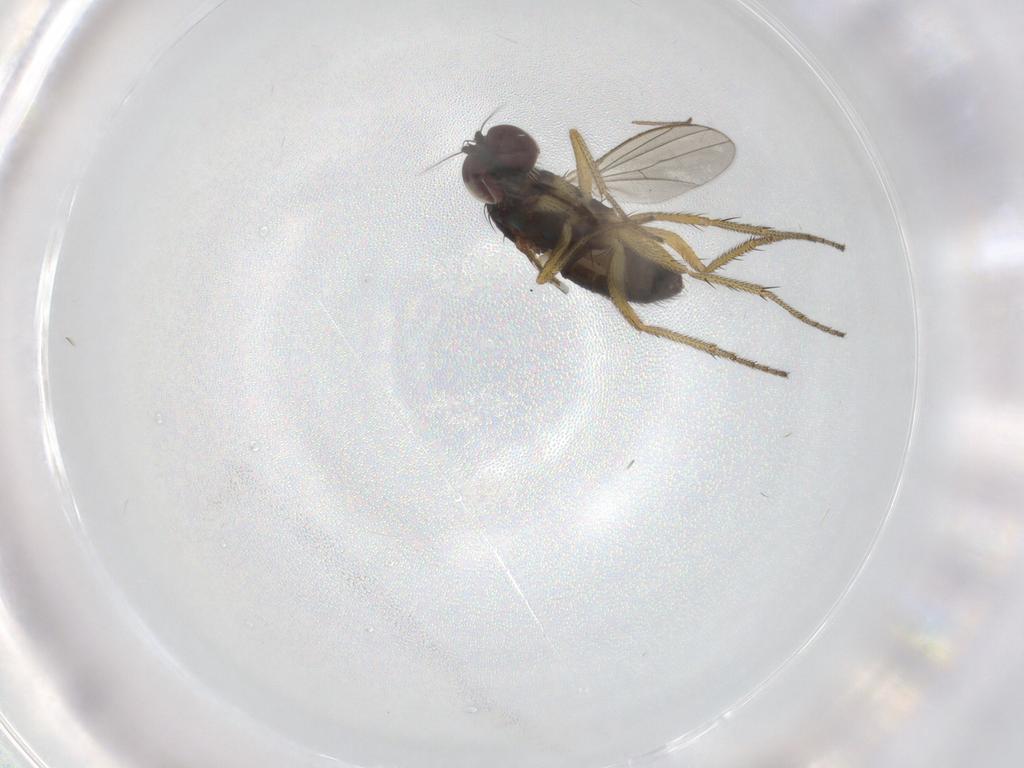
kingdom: Animalia
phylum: Arthropoda
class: Insecta
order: Diptera
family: Dolichopodidae
